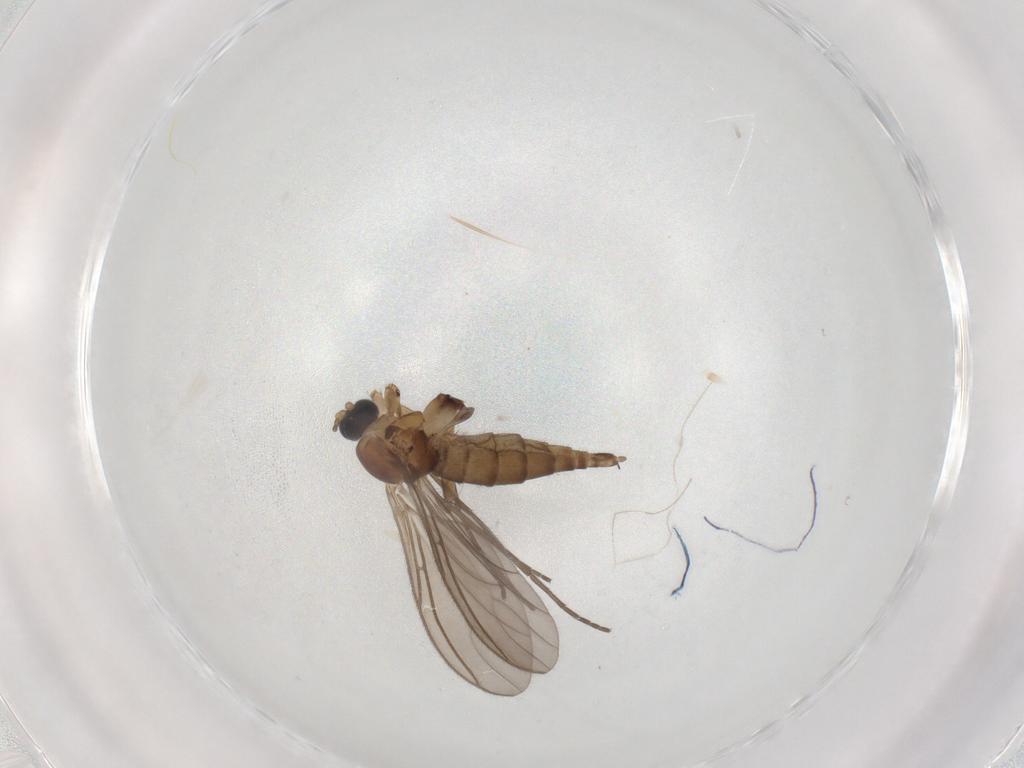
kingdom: Animalia
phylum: Arthropoda
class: Insecta
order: Diptera
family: Sciaridae
